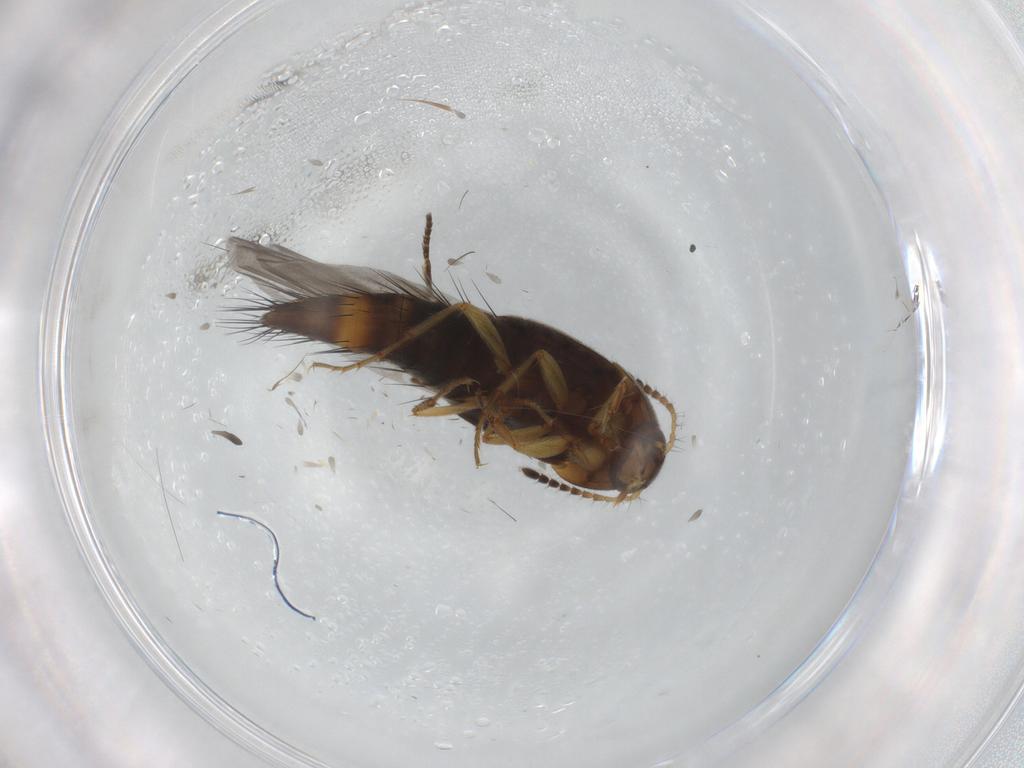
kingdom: Animalia
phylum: Arthropoda
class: Insecta
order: Coleoptera
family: Staphylinidae
